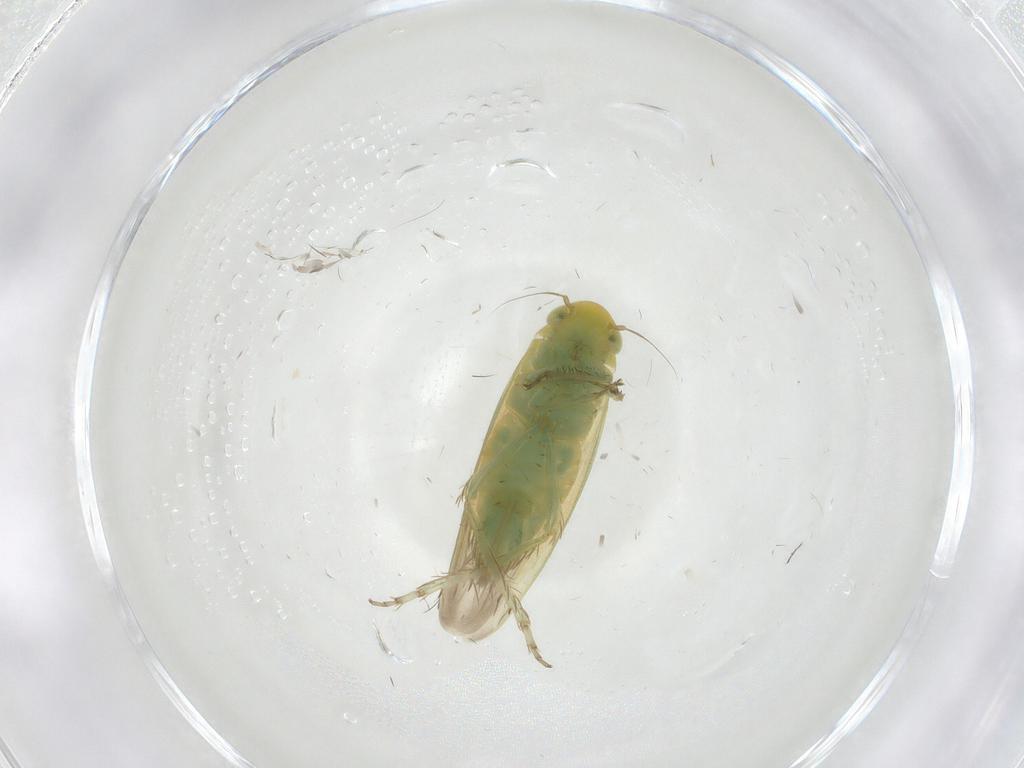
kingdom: Animalia
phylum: Arthropoda
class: Insecta
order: Hemiptera
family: Cicadellidae
